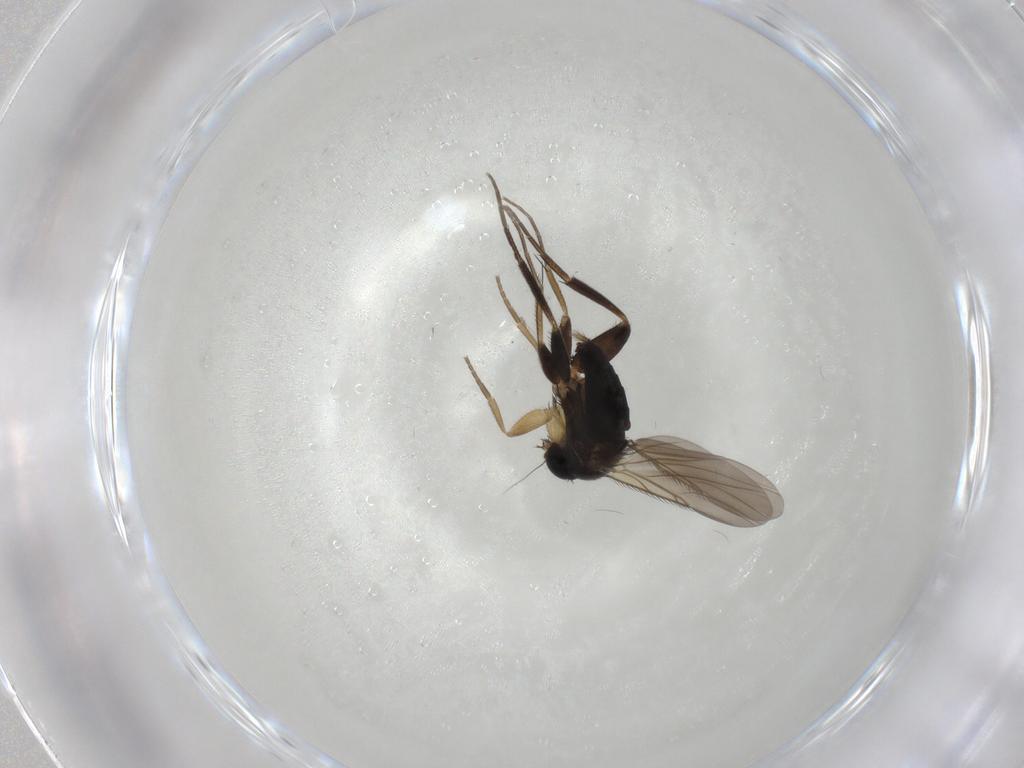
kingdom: Animalia
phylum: Arthropoda
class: Insecta
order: Diptera
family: Phoridae
